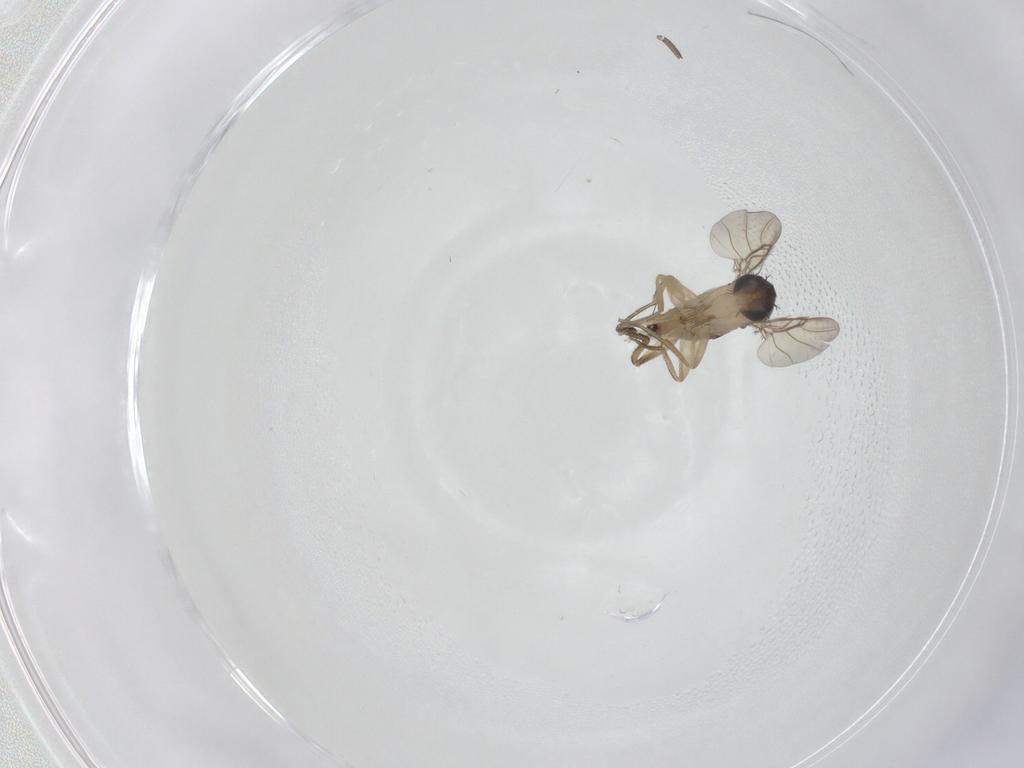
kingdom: Animalia
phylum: Arthropoda
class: Insecta
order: Diptera
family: Phoridae
